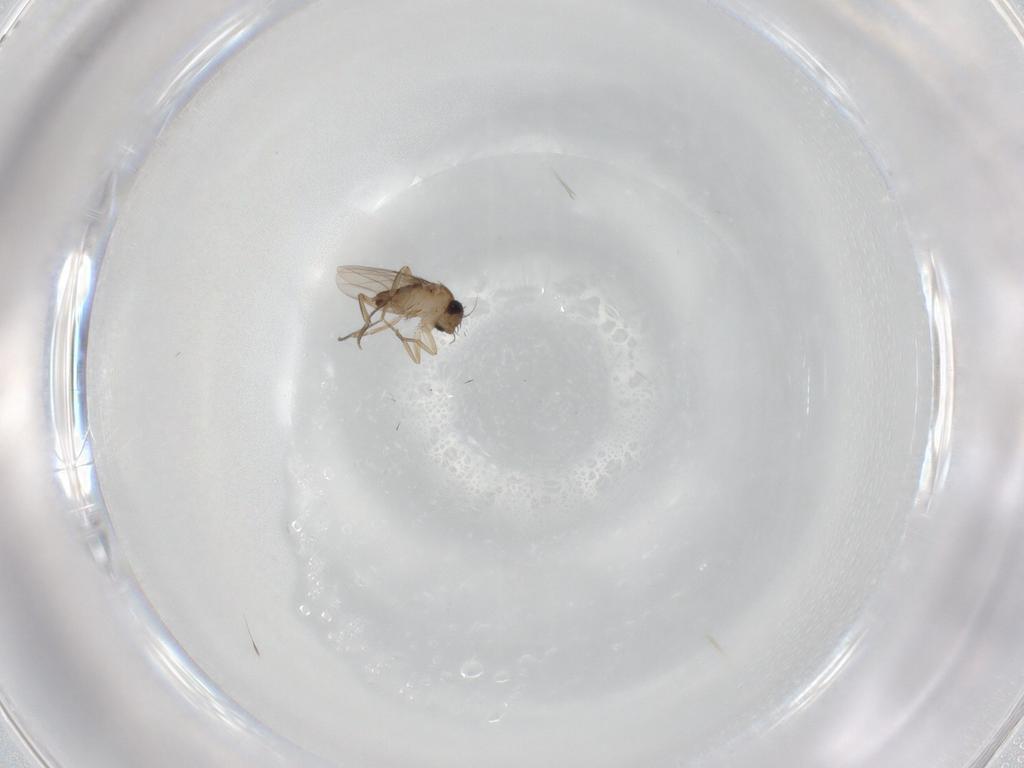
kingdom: Animalia
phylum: Arthropoda
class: Insecta
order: Diptera
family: Phoridae
